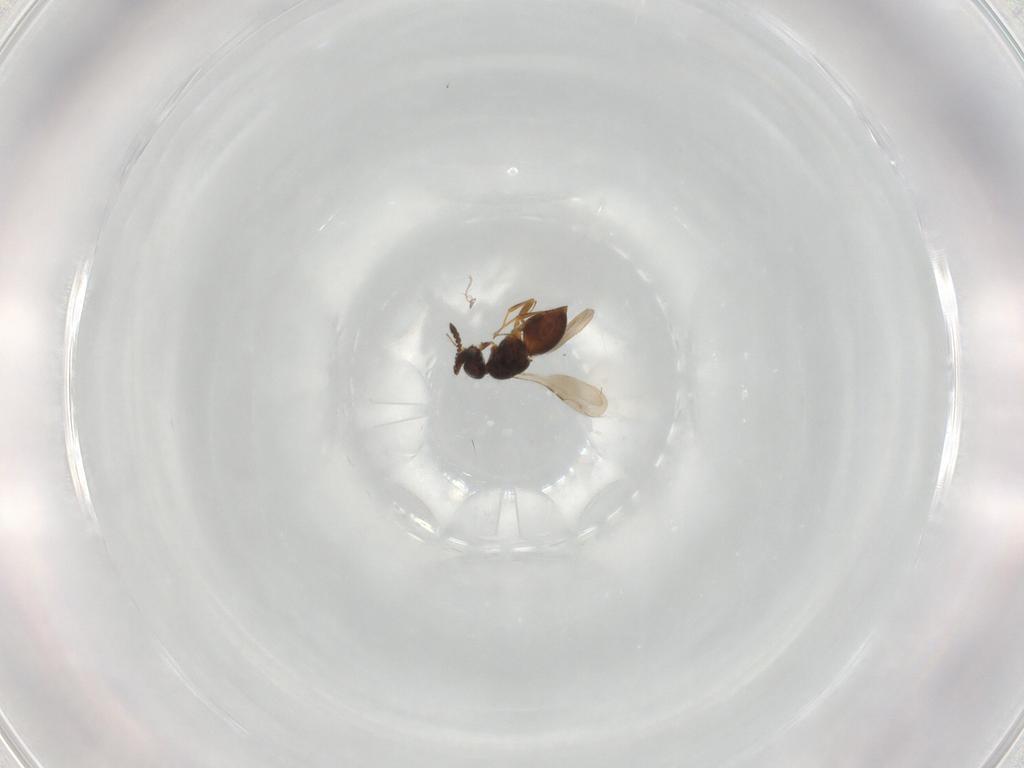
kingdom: Animalia
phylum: Arthropoda
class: Insecta
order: Hymenoptera
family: Ceraphronidae
